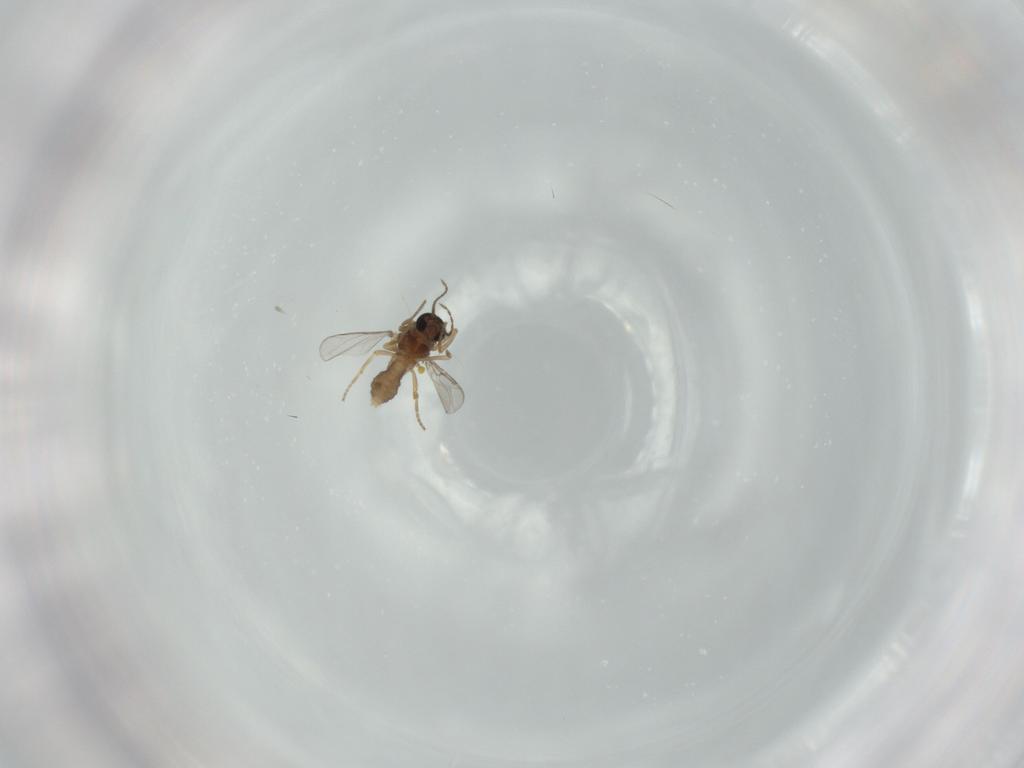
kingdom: Animalia
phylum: Arthropoda
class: Insecta
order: Diptera
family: Ceratopogonidae
